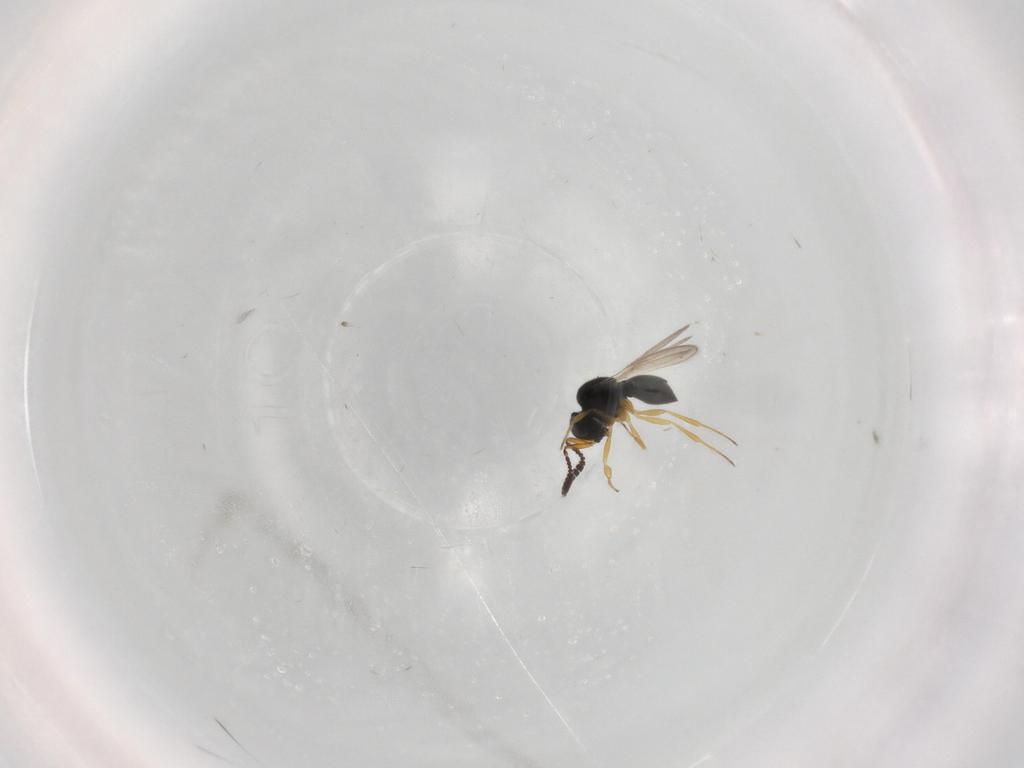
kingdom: Animalia
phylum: Arthropoda
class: Insecta
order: Hymenoptera
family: Scelionidae
